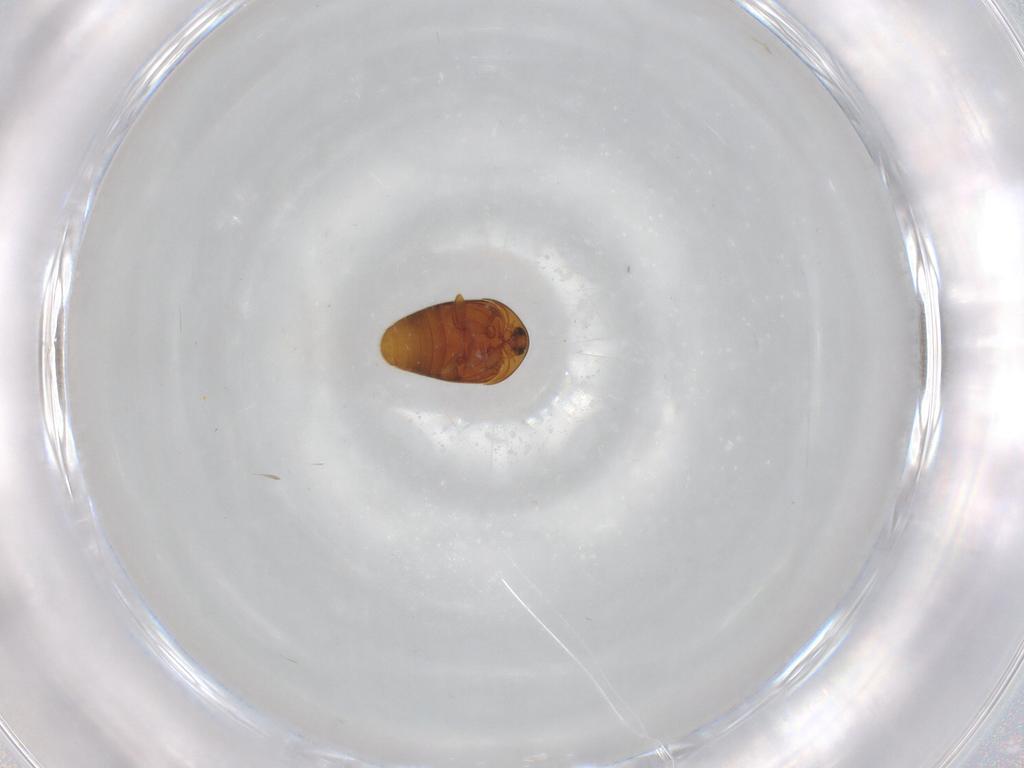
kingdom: Animalia
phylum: Arthropoda
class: Insecta
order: Coleoptera
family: Corylophidae
